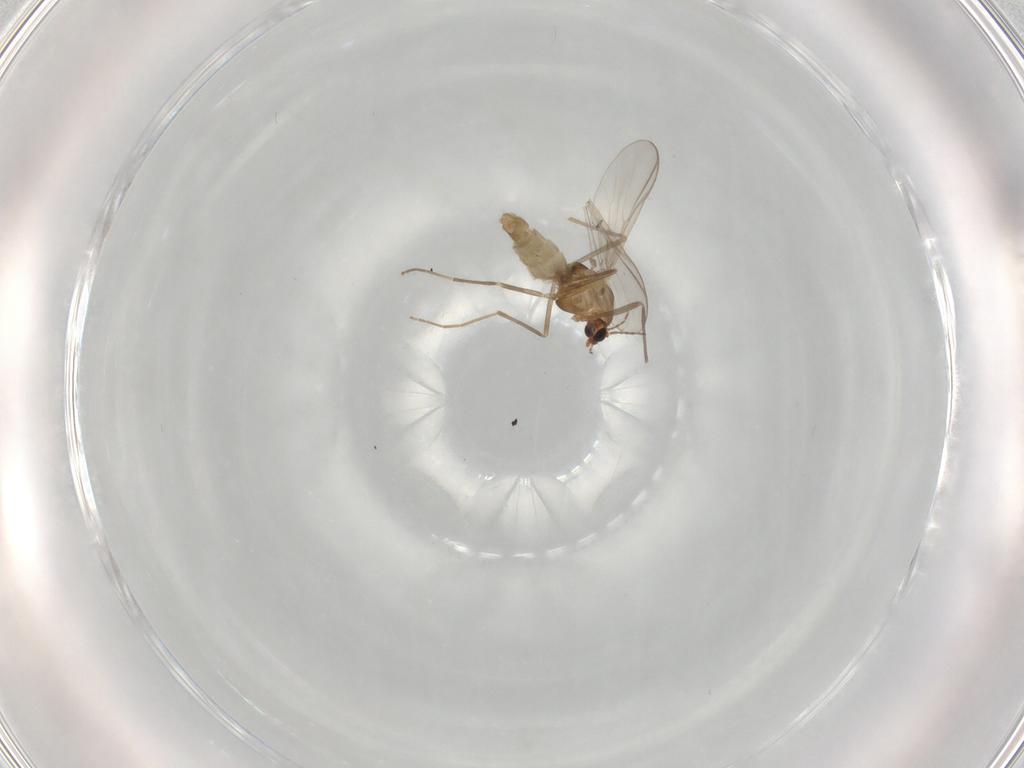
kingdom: Animalia
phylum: Arthropoda
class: Insecta
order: Diptera
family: Chironomidae
